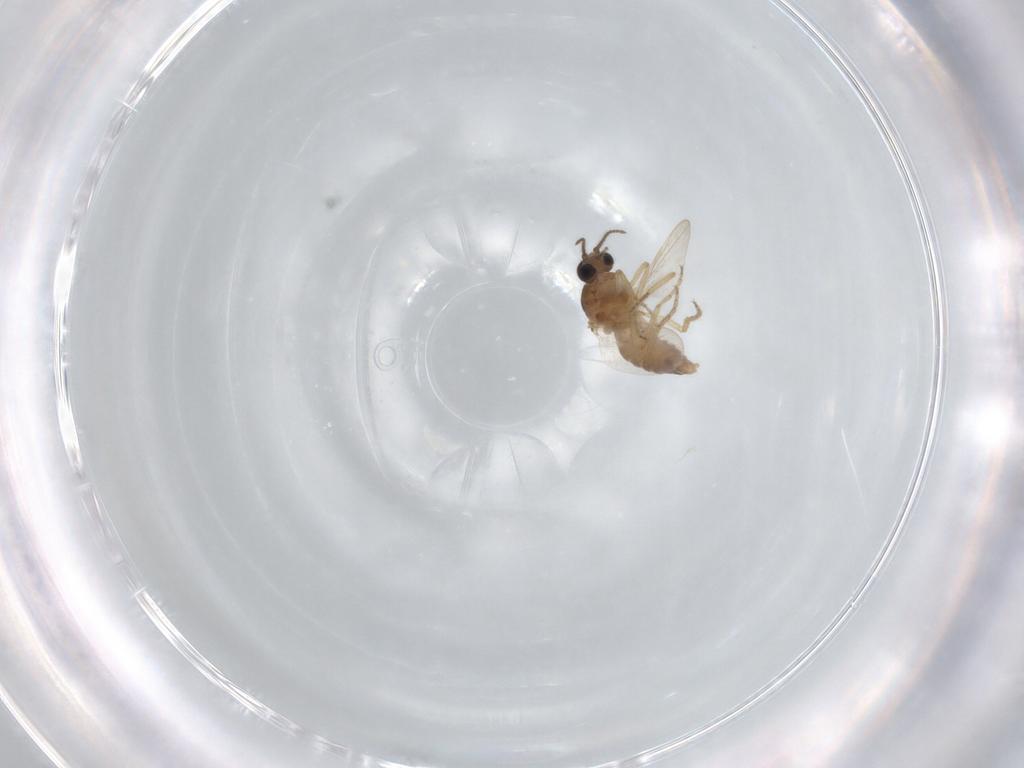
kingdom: Animalia
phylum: Arthropoda
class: Insecta
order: Diptera
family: Ceratopogonidae
